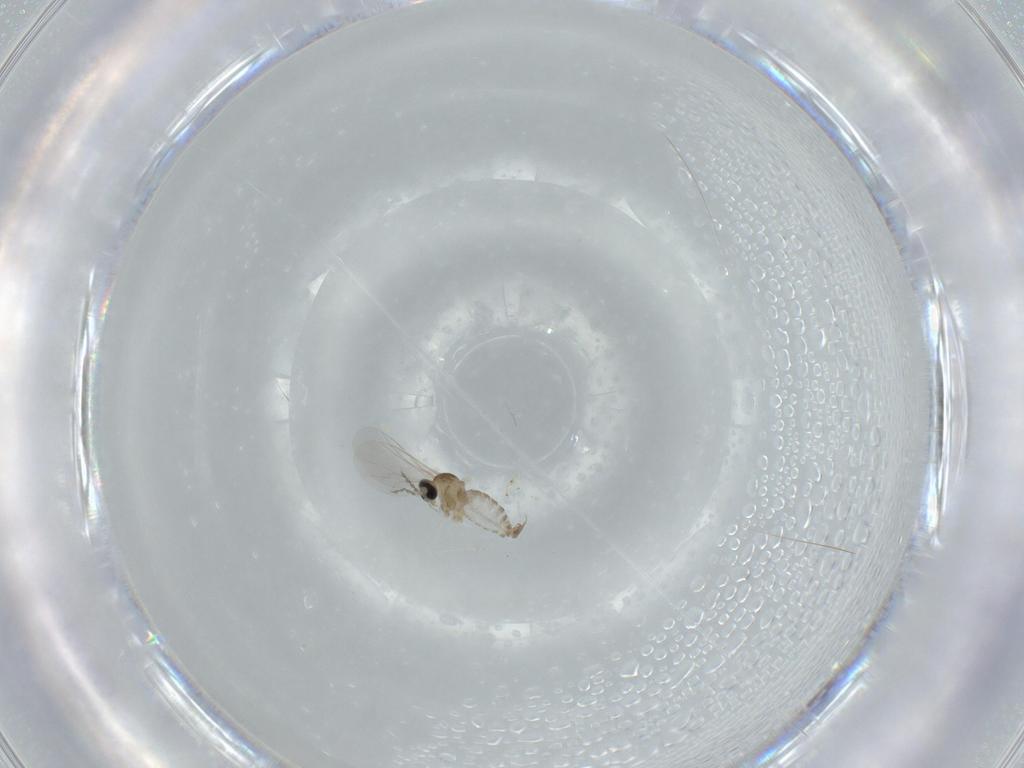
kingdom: Animalia
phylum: Arthropoda
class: Insecta
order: Diptera
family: Cecidomyiidae
